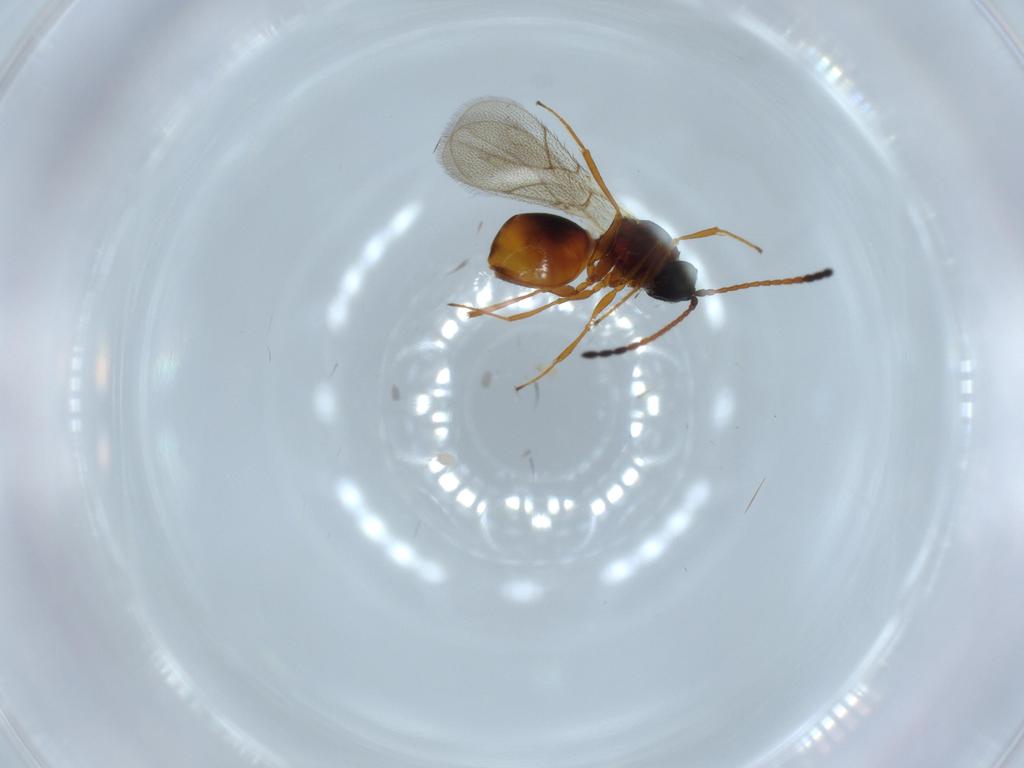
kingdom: Animalia
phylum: Arthropoda
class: Insecta
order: Hymenoptera
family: Figitidae
